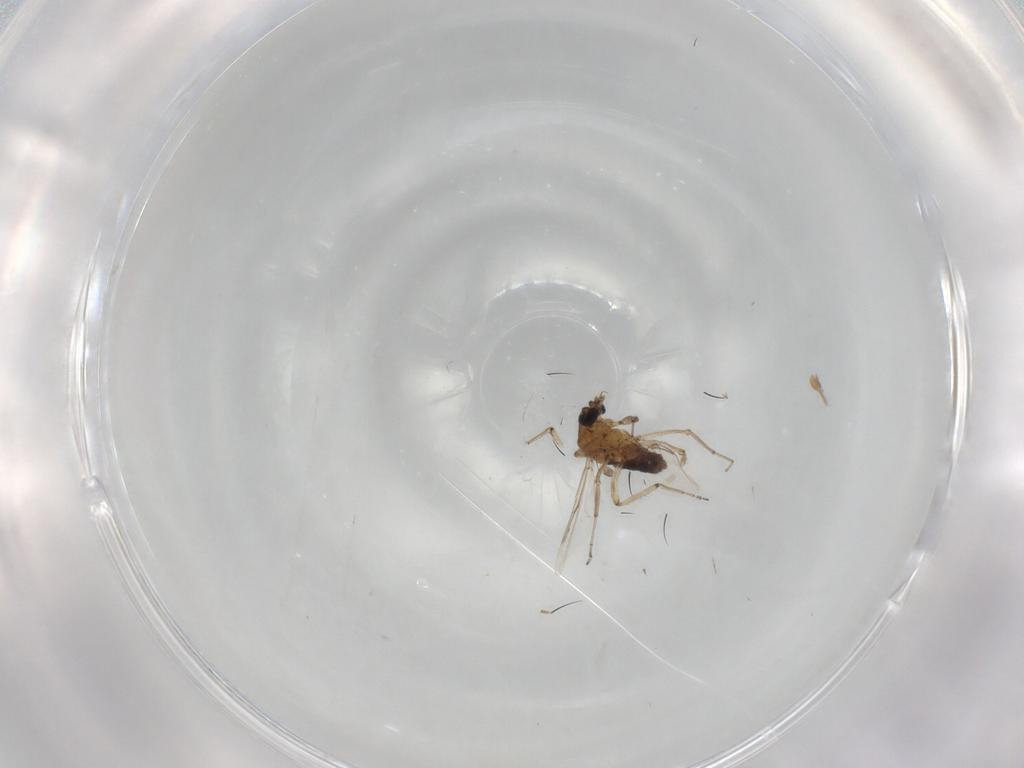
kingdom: Animalia
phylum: Arthropoda
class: Insecta
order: Diptera
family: Ceratopogonidae
